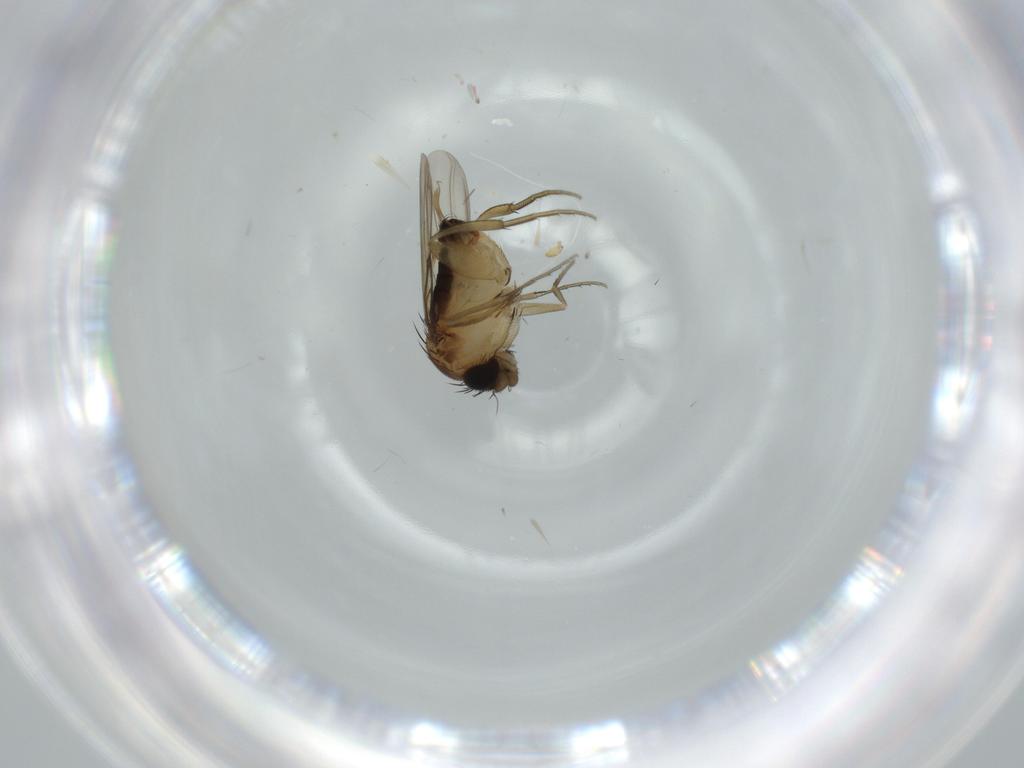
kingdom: Animalia
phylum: Arthropoda
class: Insecta
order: Diptera
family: Phoridae
